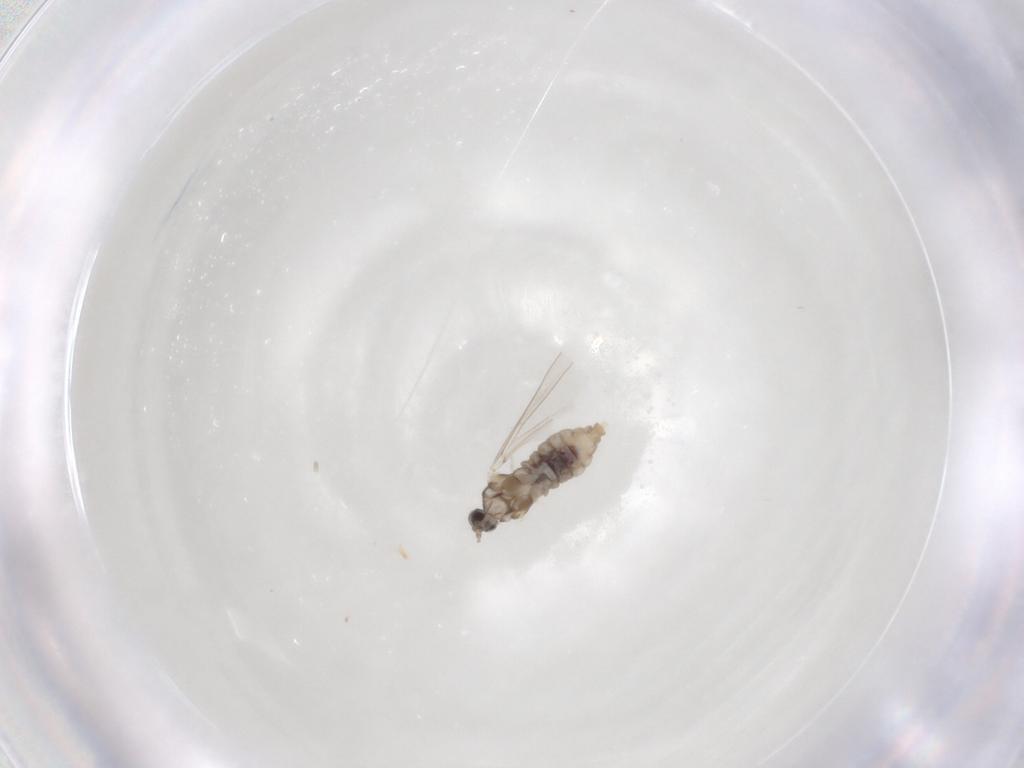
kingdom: Animalia
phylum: Arthropoda
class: Insecta
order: Diptera
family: Cecidomyiidae
